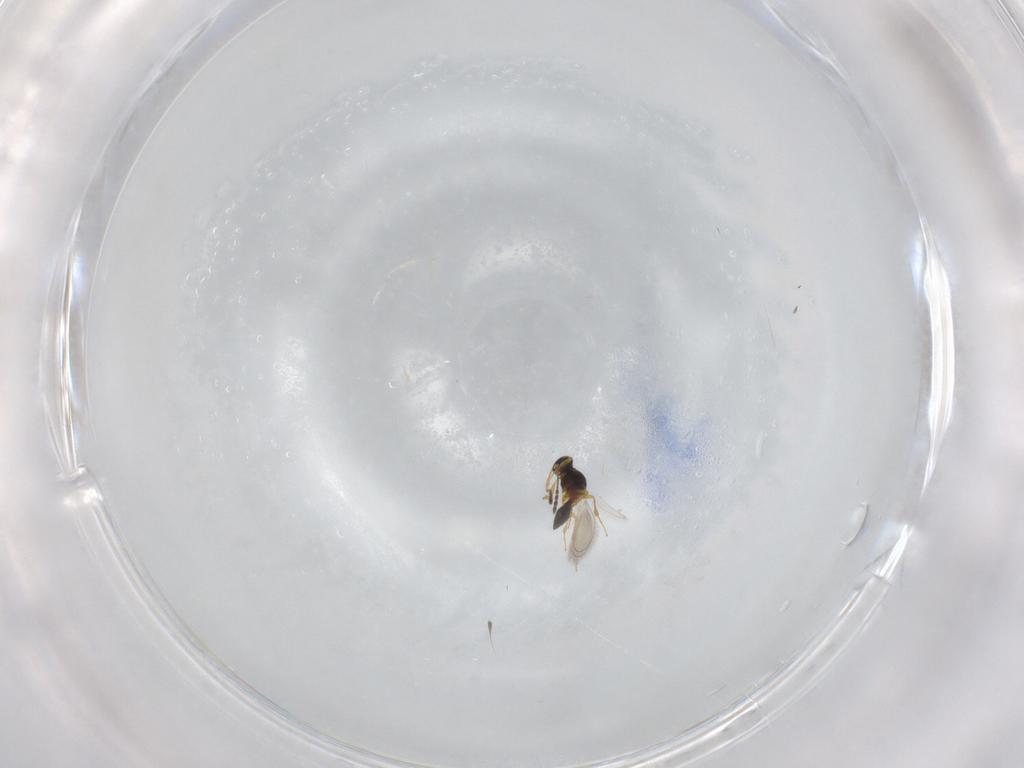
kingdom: Animalia
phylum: Arthropoda
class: Insecta
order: Hymenoptera
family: Platygastridae
